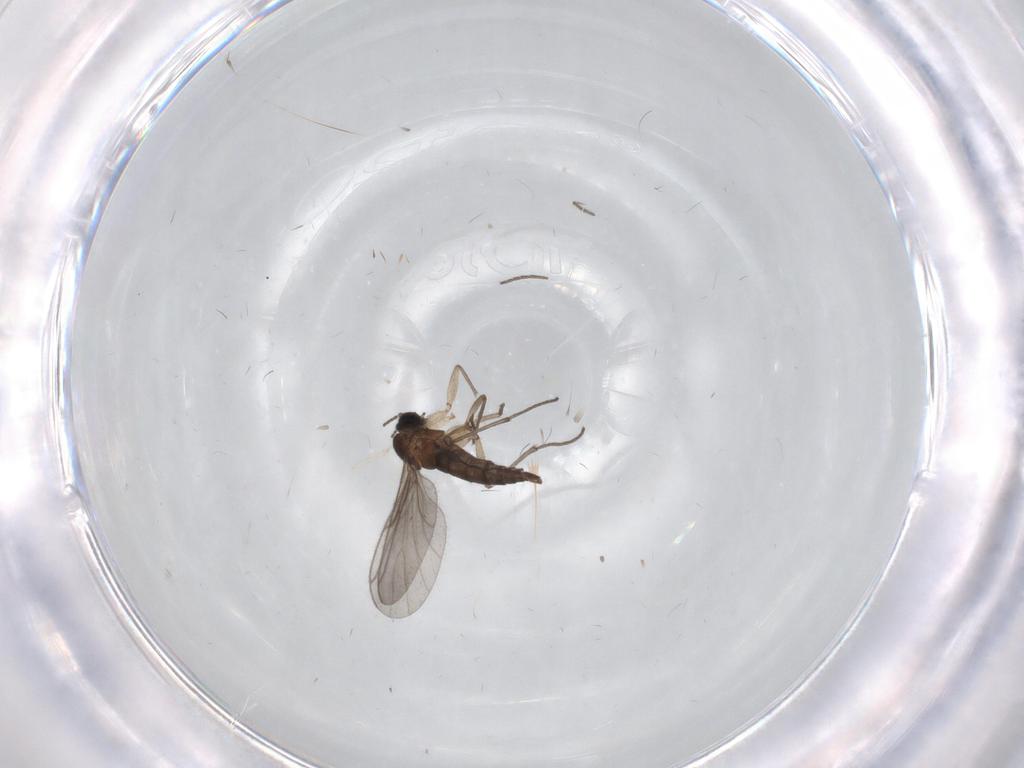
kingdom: Animalia
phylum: Arthropoda
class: Insecta
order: Diptera
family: Sciaridae
